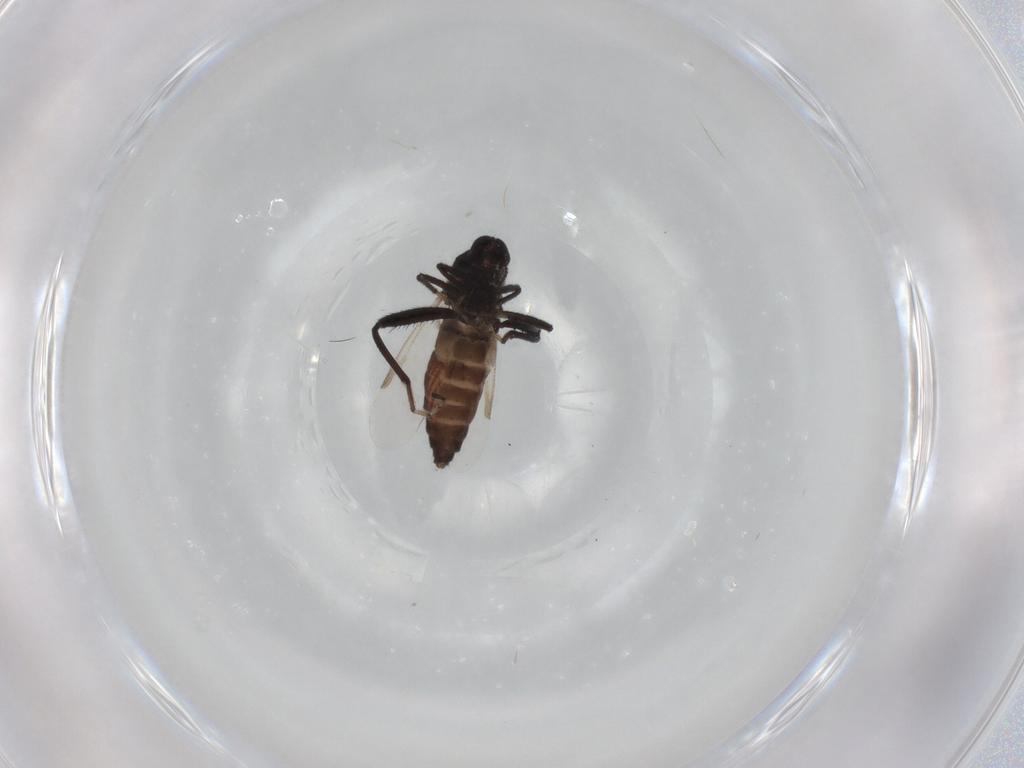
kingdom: Animalia
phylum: Arthropoda
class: Insecta
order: Diptera
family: Ceratopogonidae
